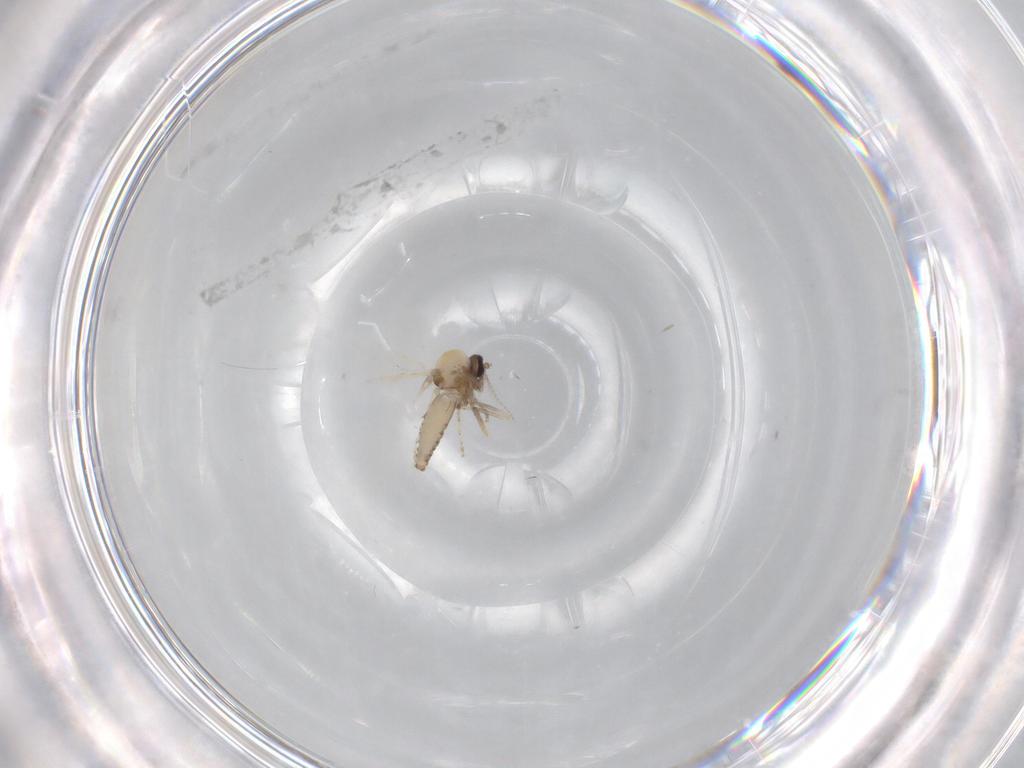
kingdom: Animalia
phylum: Arthropoda
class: Insecta
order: Diptera
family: Ceratopogonidae
